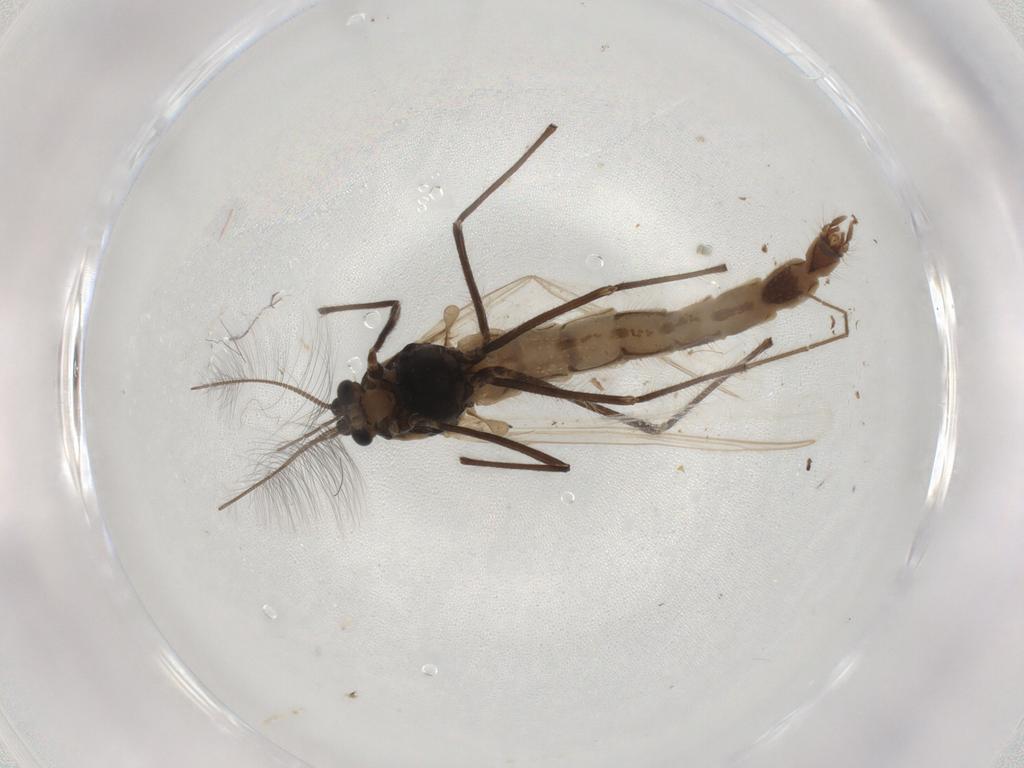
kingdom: Animalia
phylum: Arthropoda
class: Insecta
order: Diptera
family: Chironomidae
